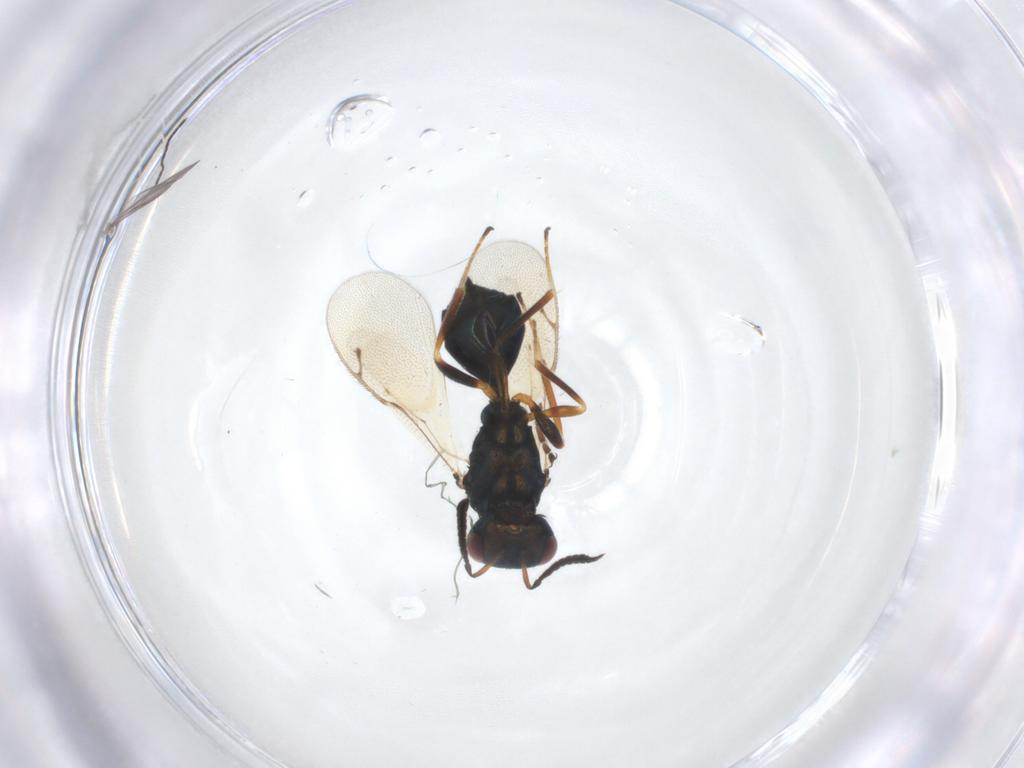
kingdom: Animalia
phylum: Arthropoda
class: Insecta
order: Hymenoptera
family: Pteromalidae
